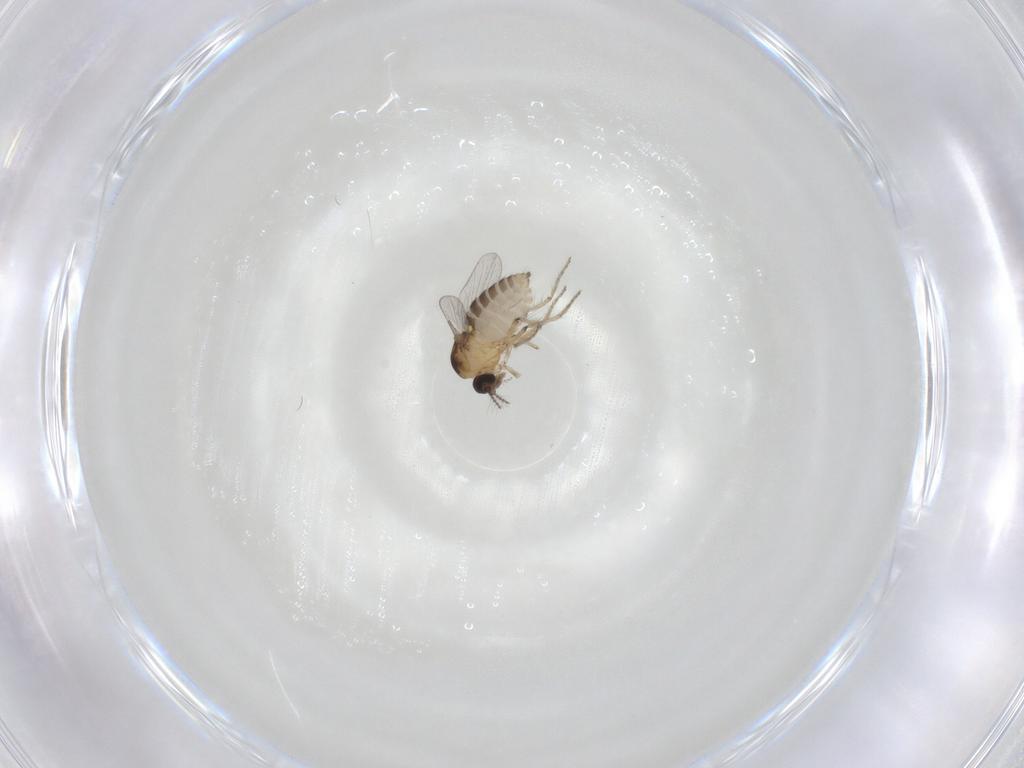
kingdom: Animalia
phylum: Arthropoda
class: Insecta
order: Diptera
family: Ceratopogonidae
